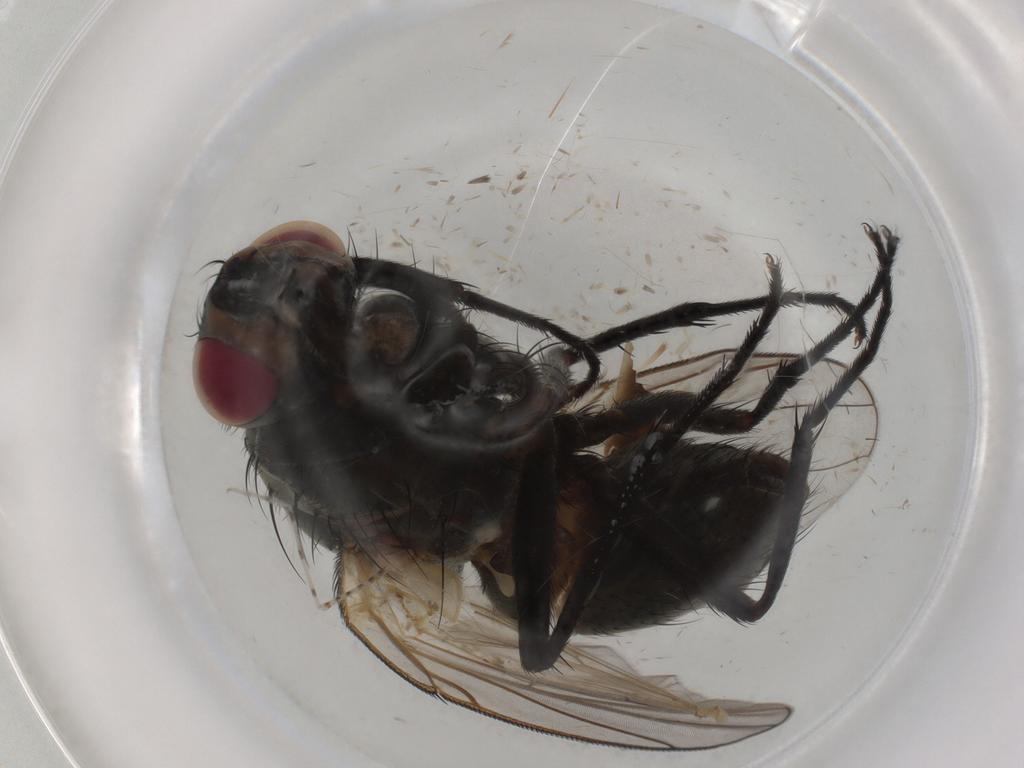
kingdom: Animalia
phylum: Arthropoda
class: Insecta
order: Diptera
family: Muscidae
